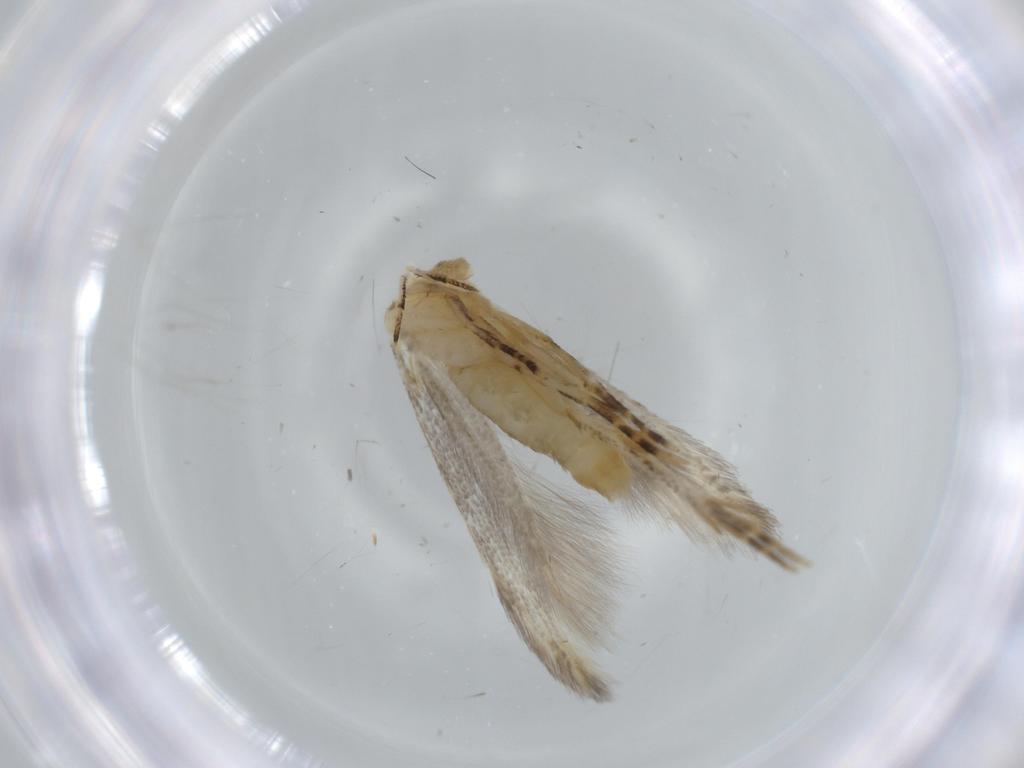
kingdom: Animalia
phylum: Arthropoda
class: Insecta
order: Lepidoptera
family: Stathmopodidae
